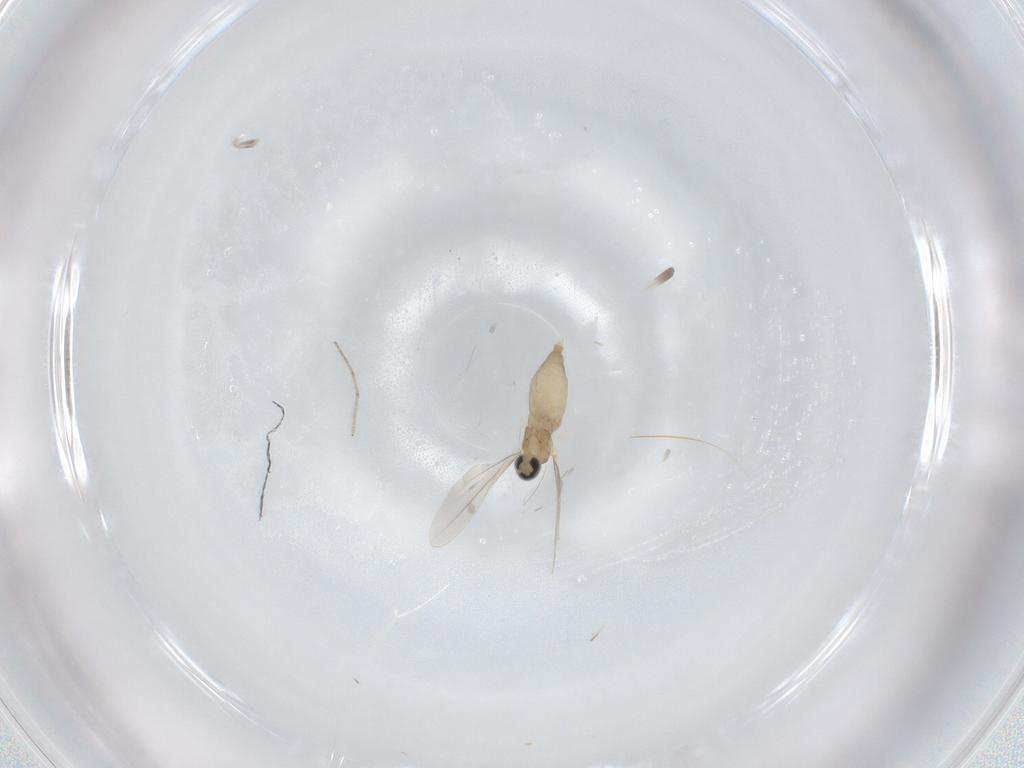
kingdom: Animalia
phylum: Arthropoda
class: Insecta
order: Diptera
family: Cecidomyiidae
